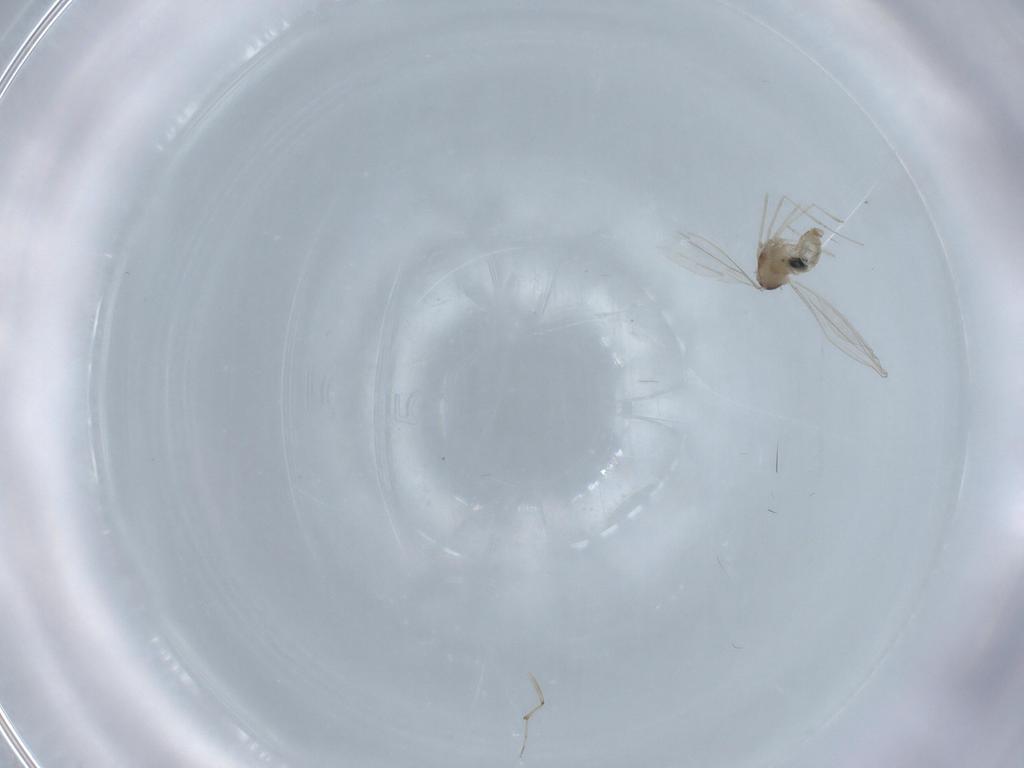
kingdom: Animalia
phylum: Arthropoda
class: Insecta
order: Diptera
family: Cecidomyiidae
